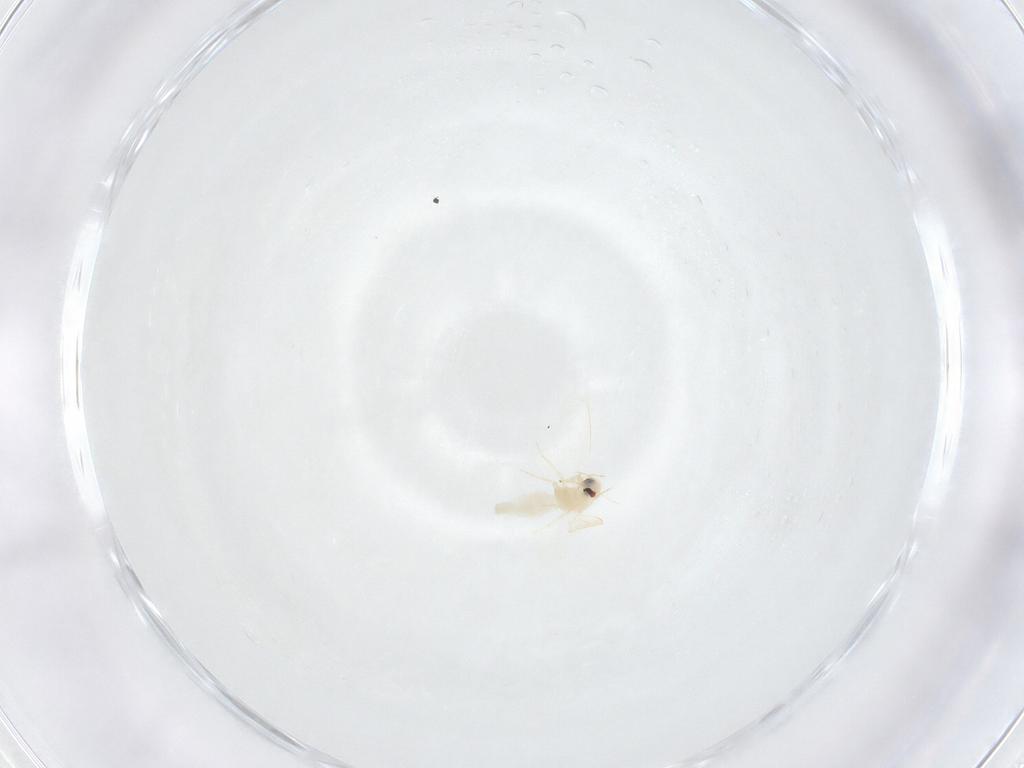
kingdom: Animalia
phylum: Arthropoda
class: Insecta
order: Hemiptera
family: Aleyrodidae
